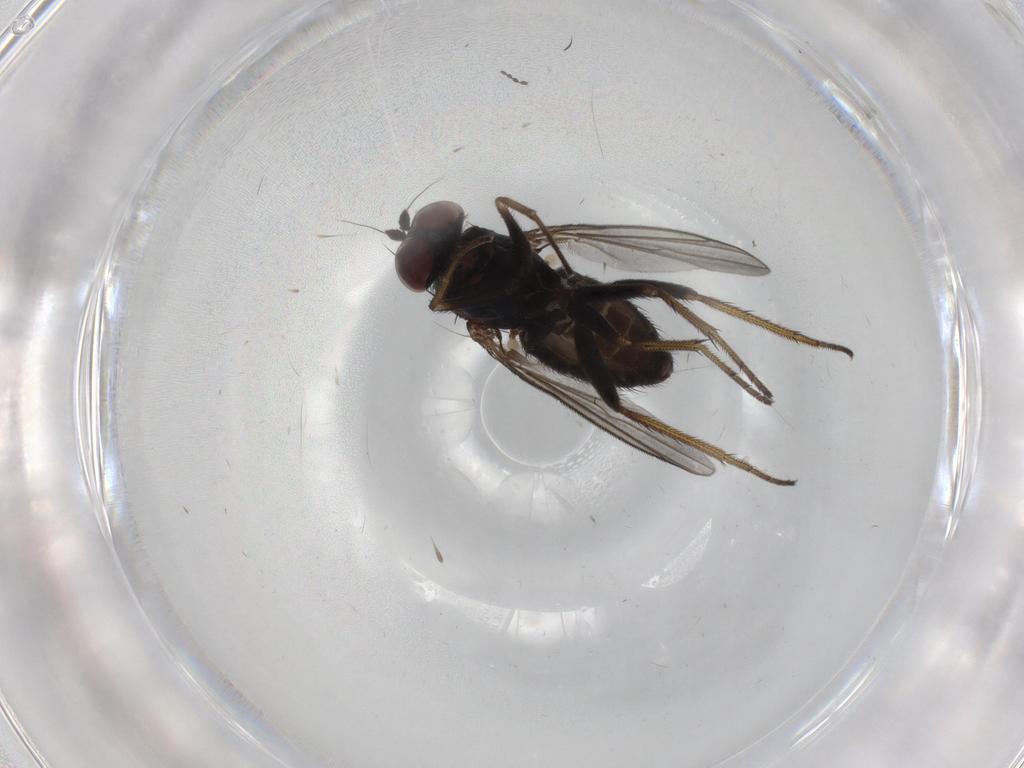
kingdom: Animalia
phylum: Arthropoda
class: Insecta
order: Diptera
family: Dolichopodidae
